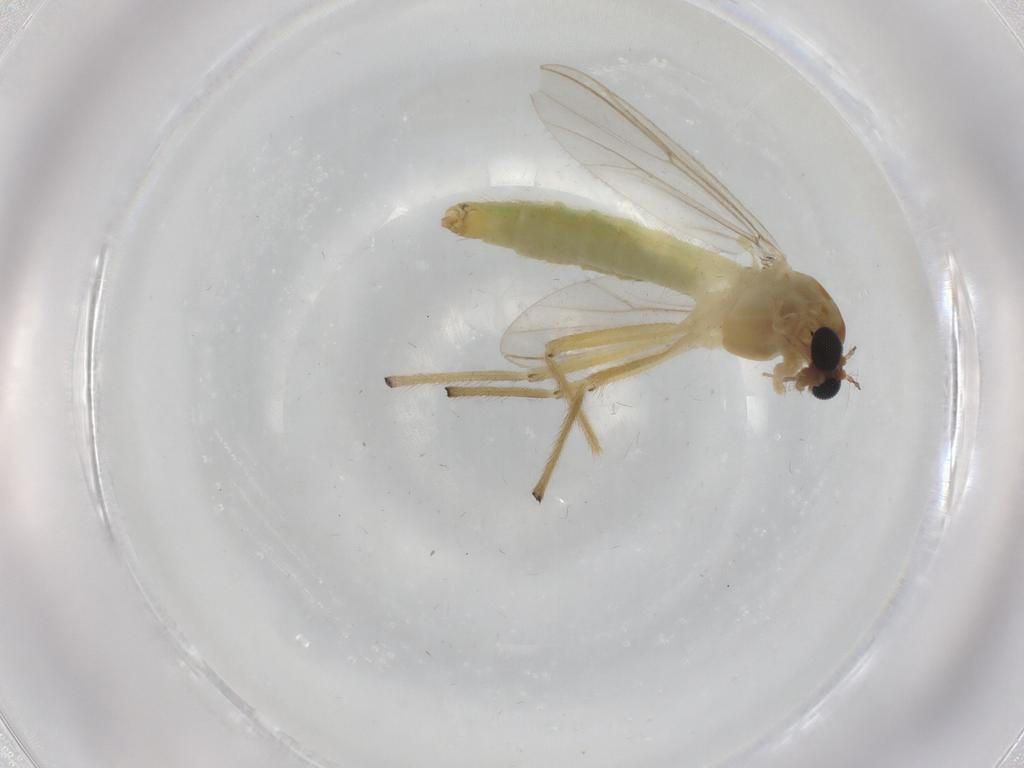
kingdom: Animalia
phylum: Arthropoda
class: Insecta
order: Diptera
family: Chironomidae
